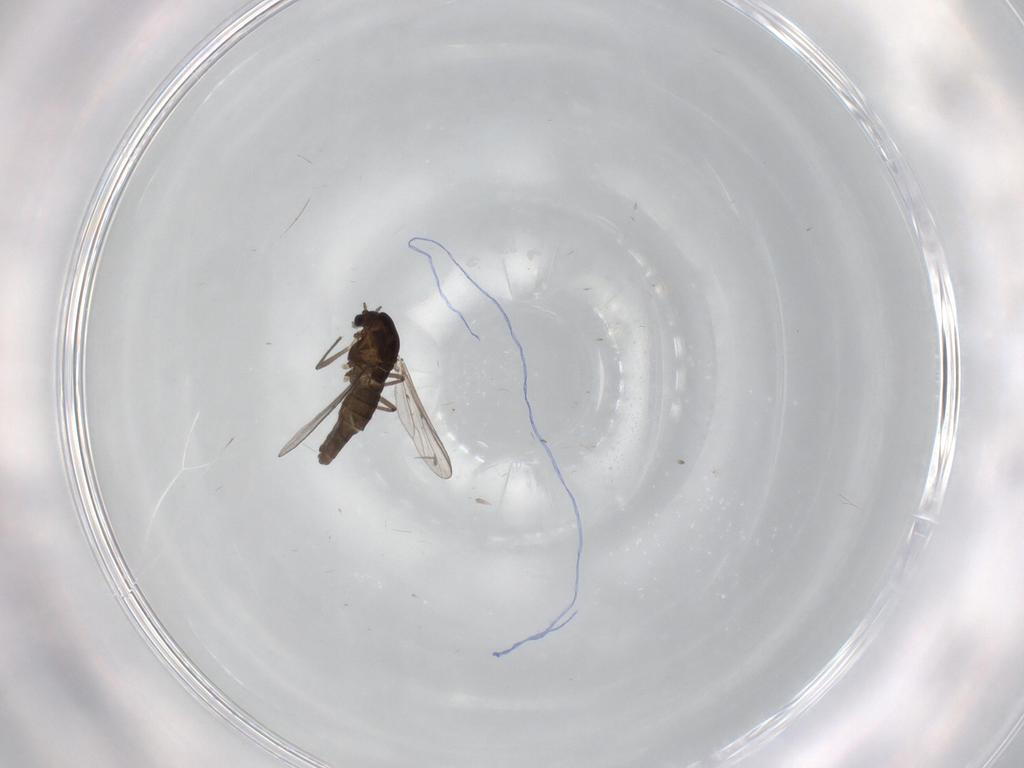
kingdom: Animalia
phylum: Arthropoda
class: Insecta
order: Diptera
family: Chironomidae
